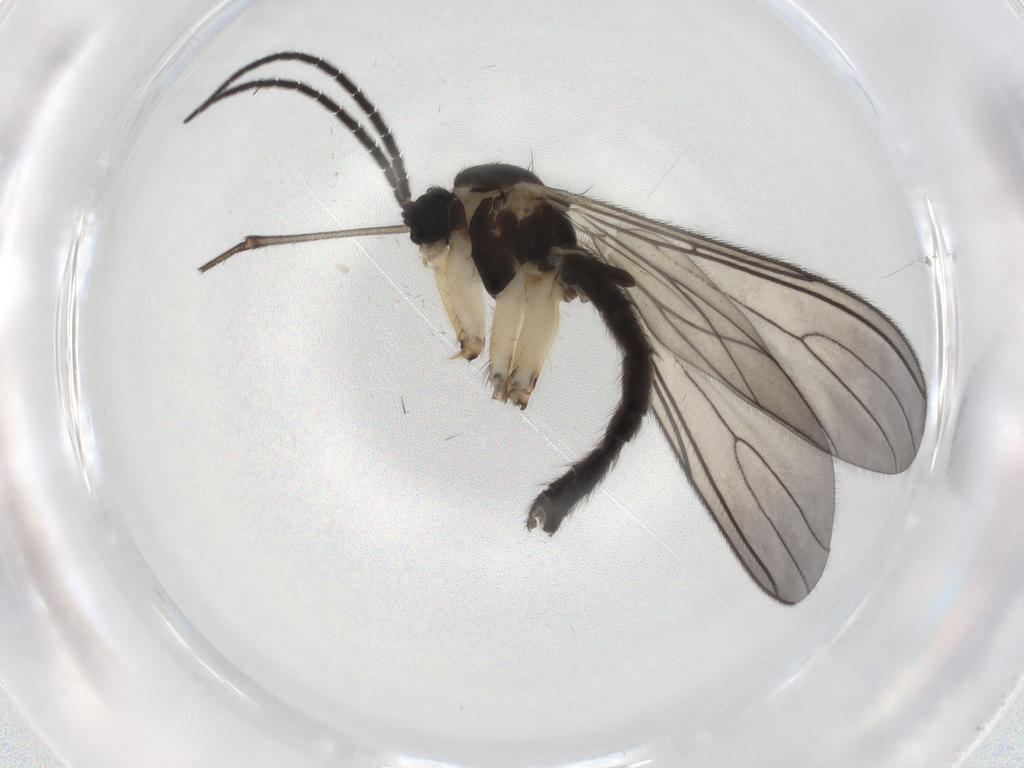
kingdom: Animalia
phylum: Arthropoda
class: Insecta
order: Diptera
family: Sciaridae
